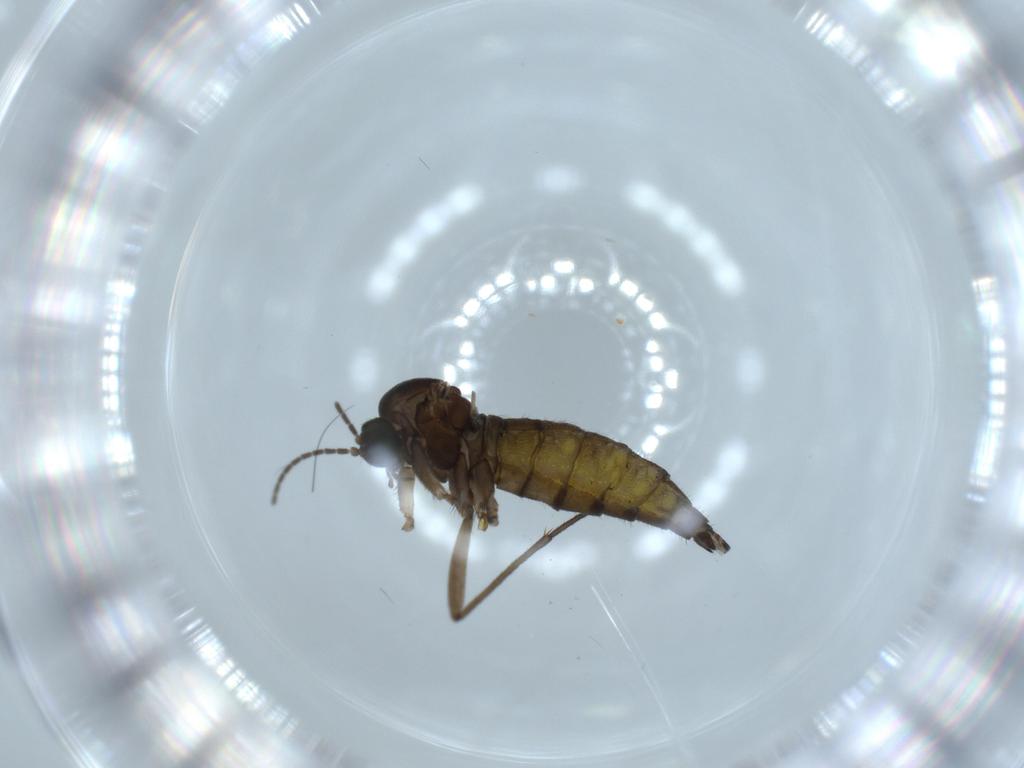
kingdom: Animalia
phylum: Arthropoda
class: Insecta
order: Diptera
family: Sciaridae
